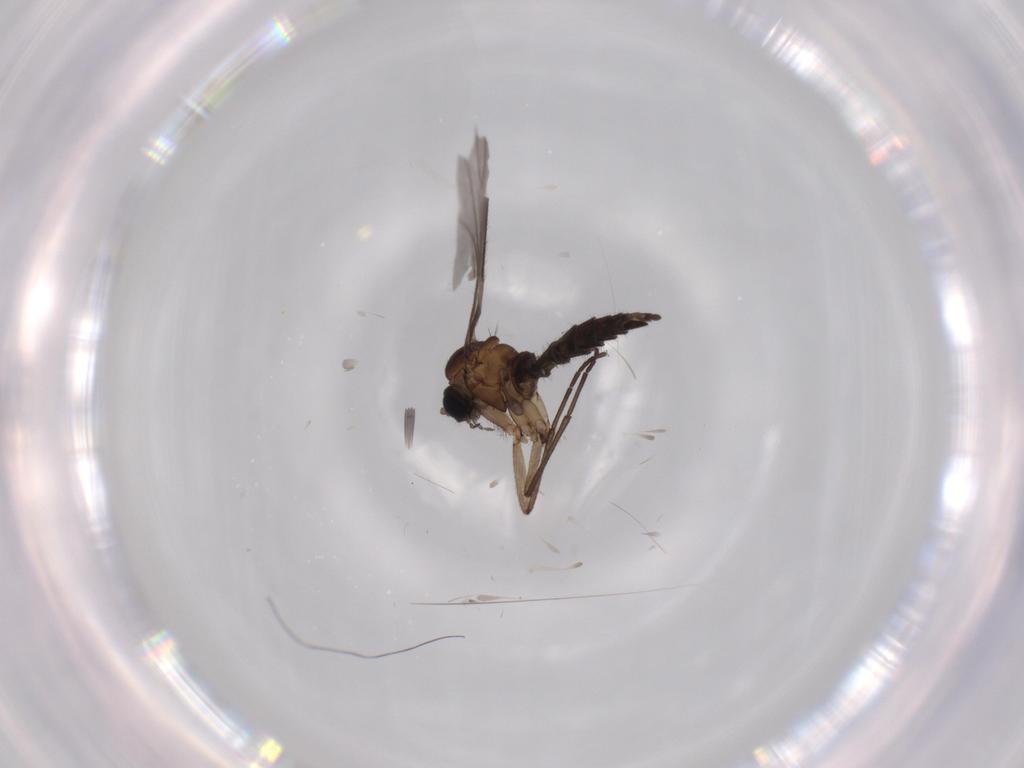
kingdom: Animalia
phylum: Arthropoda
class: Insecta
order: Diptera
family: Sciaridae
